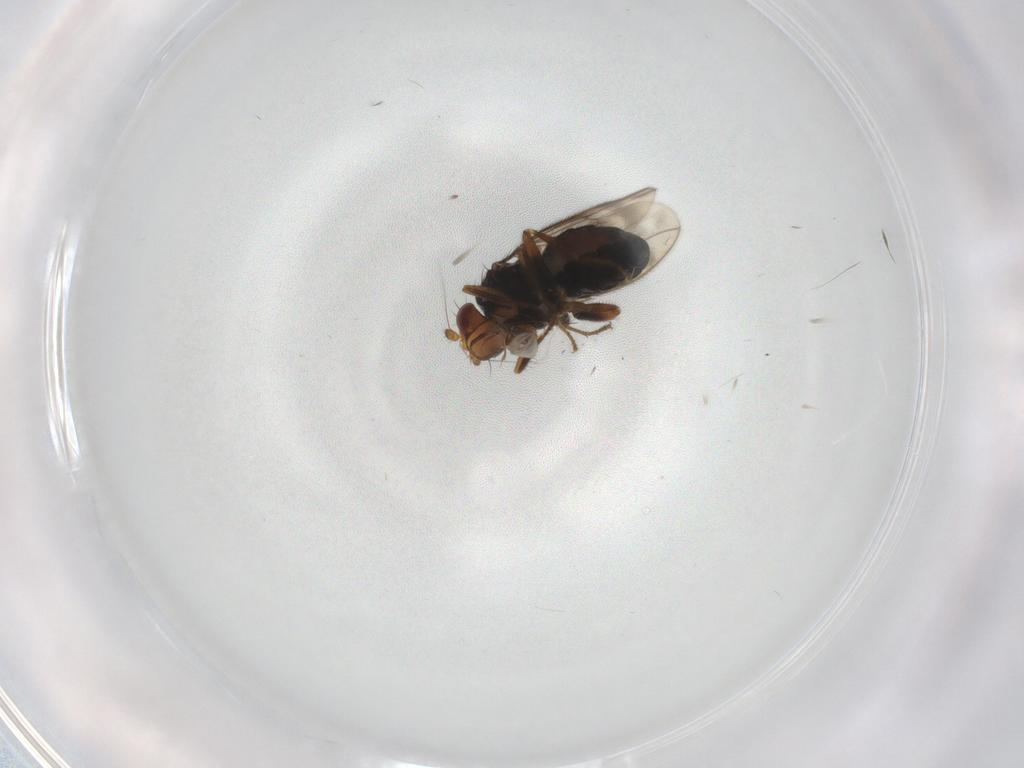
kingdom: Animalia
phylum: Arthropoda
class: Insecta
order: Diptera
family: Sphaeroceridae
